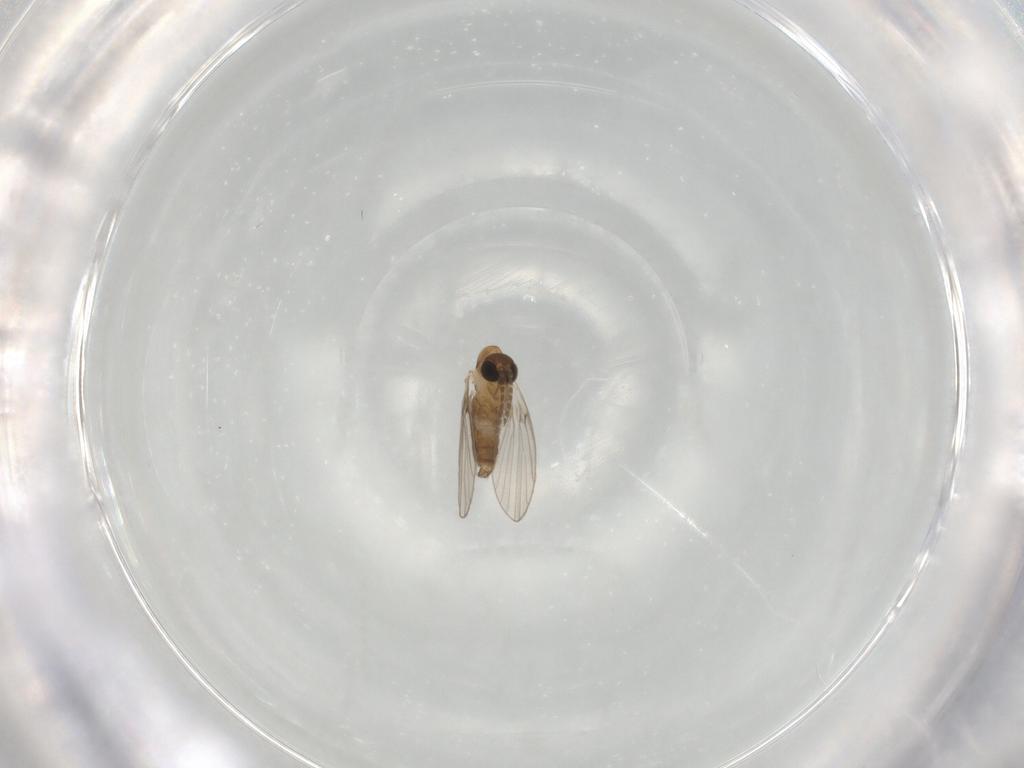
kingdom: Animalia
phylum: Arthropoda
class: Insecta
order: Diptera
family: Psychodidae
